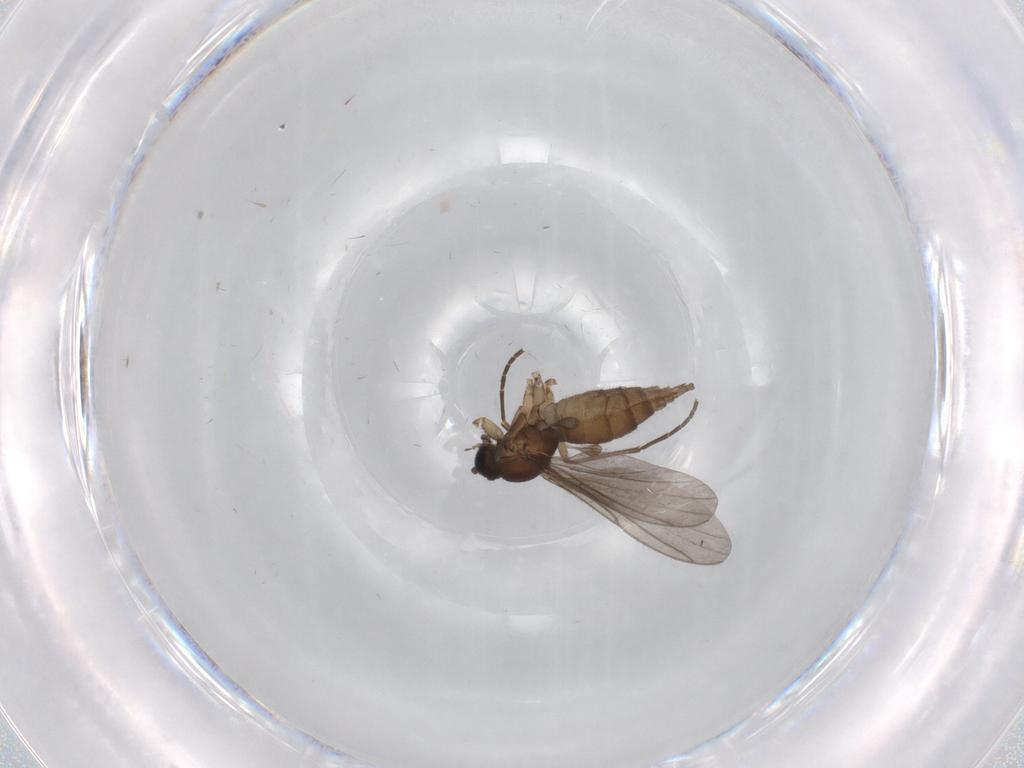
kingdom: Animalia
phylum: Arthropoda
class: Insecta
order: Diptera
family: Sciaridae
